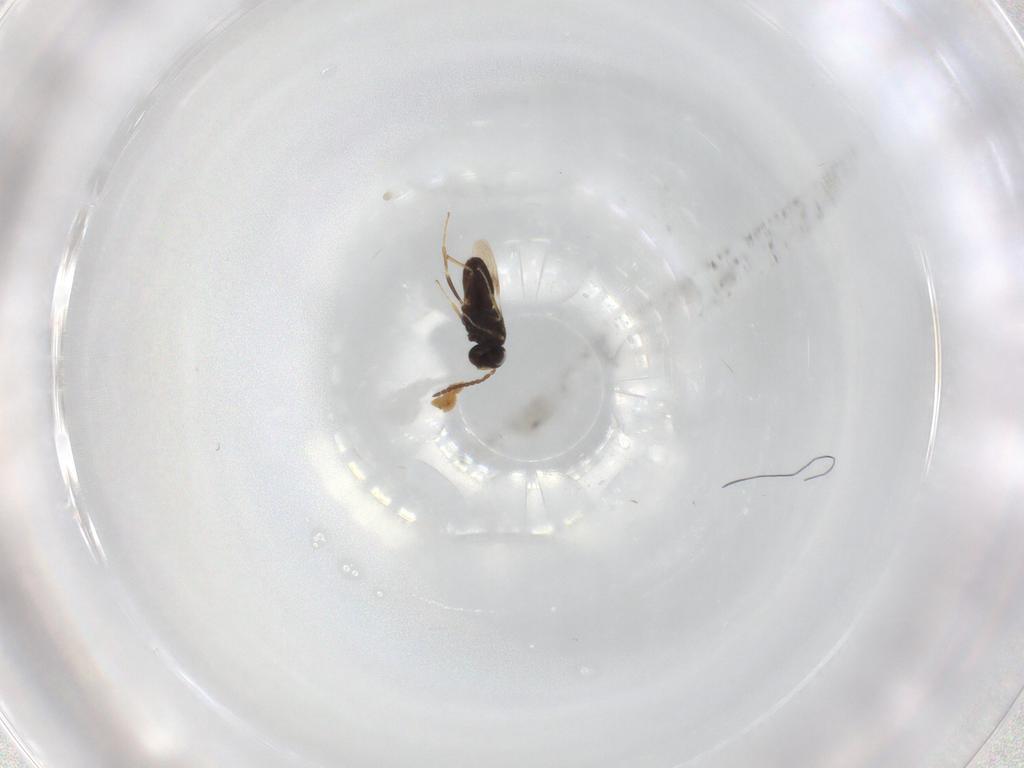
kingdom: Animalia
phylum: Arthropoda
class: Insecta
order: Hymenoptera
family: Scelionidae
